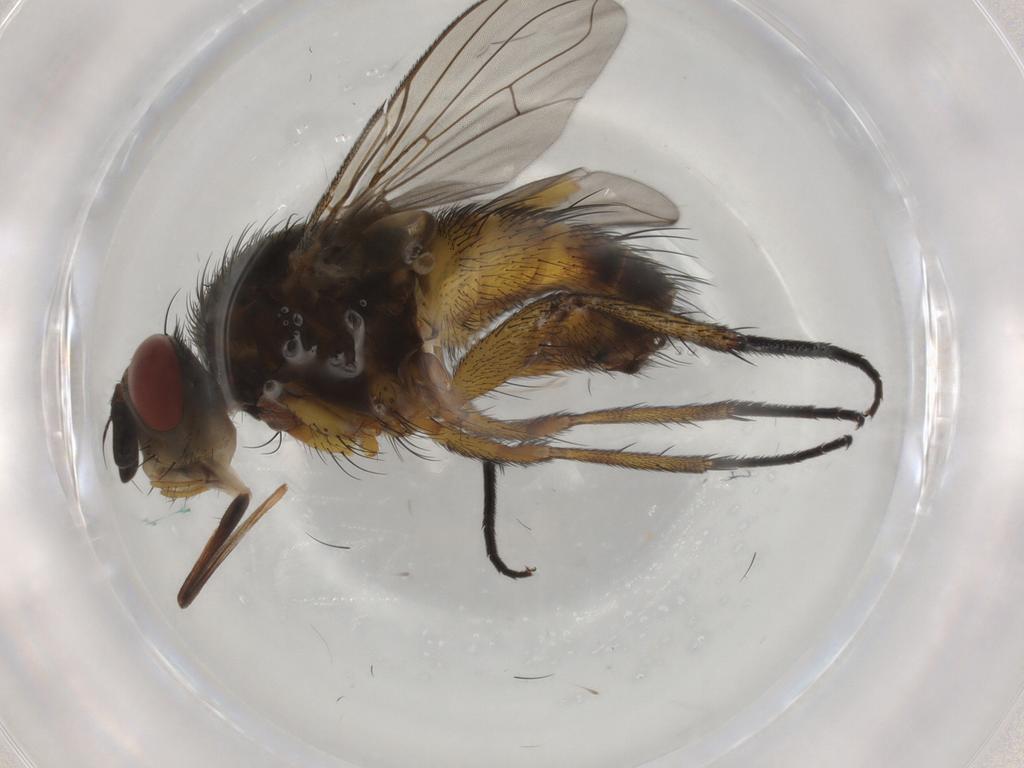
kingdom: Animalia
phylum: Arthropoda
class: Insecta
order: Diptera
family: Tachinidae
